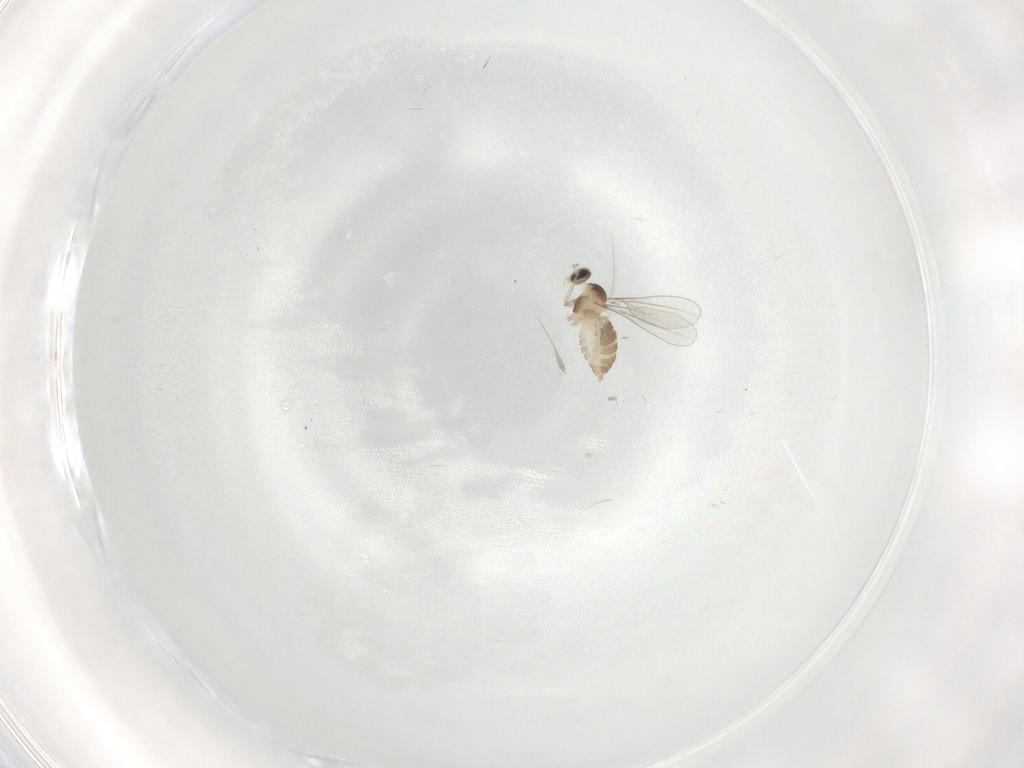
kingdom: Animalia
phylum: Arthropoda
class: Insecta
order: Diptera
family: Cecidomyiidae
